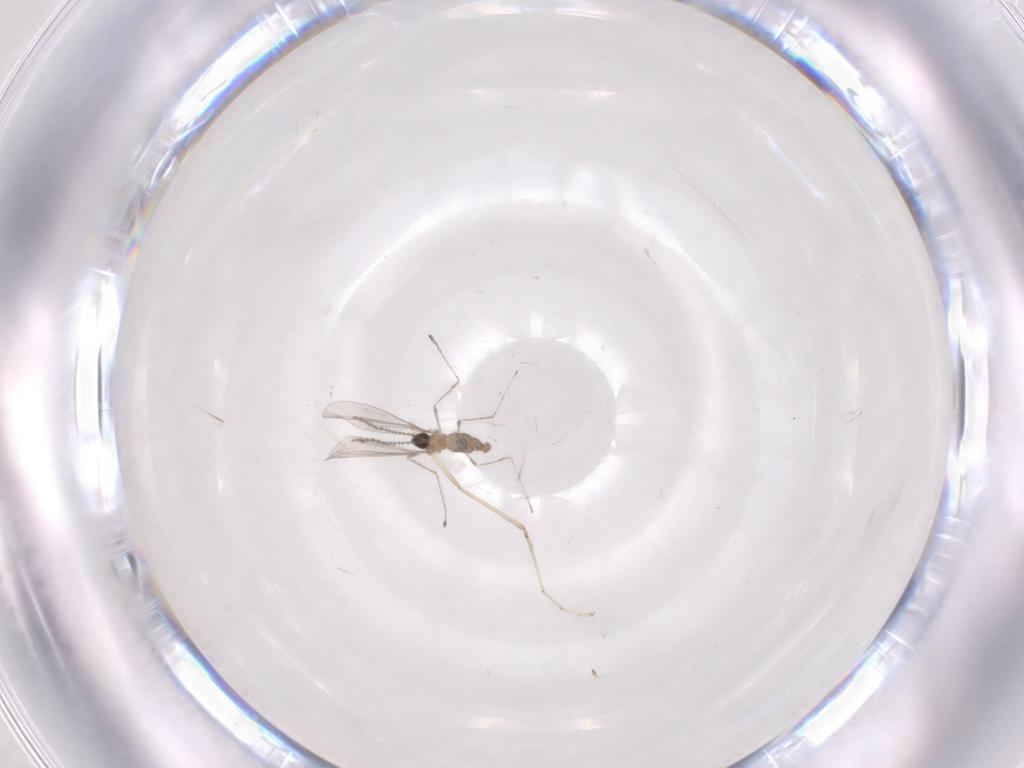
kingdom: Animalia
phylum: Arthropoda
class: Insecta
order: Diptera
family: Cecidomyiidae
